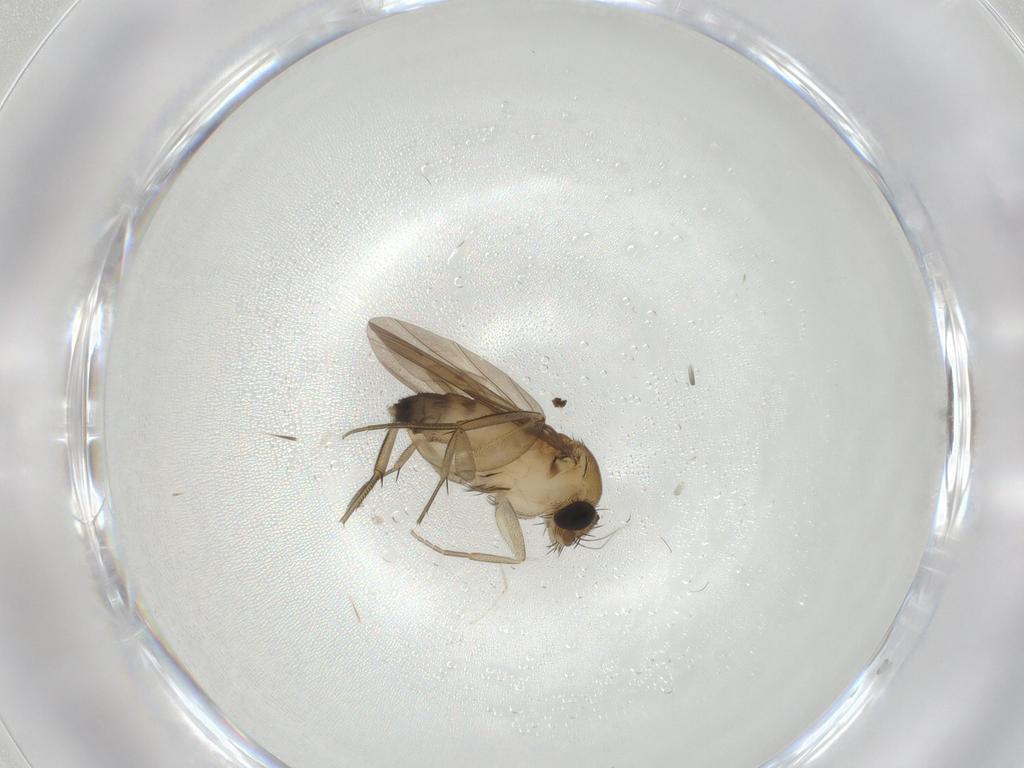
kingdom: Animalia
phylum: Arthropoda
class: Insecta
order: Diptera
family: Phoridae
